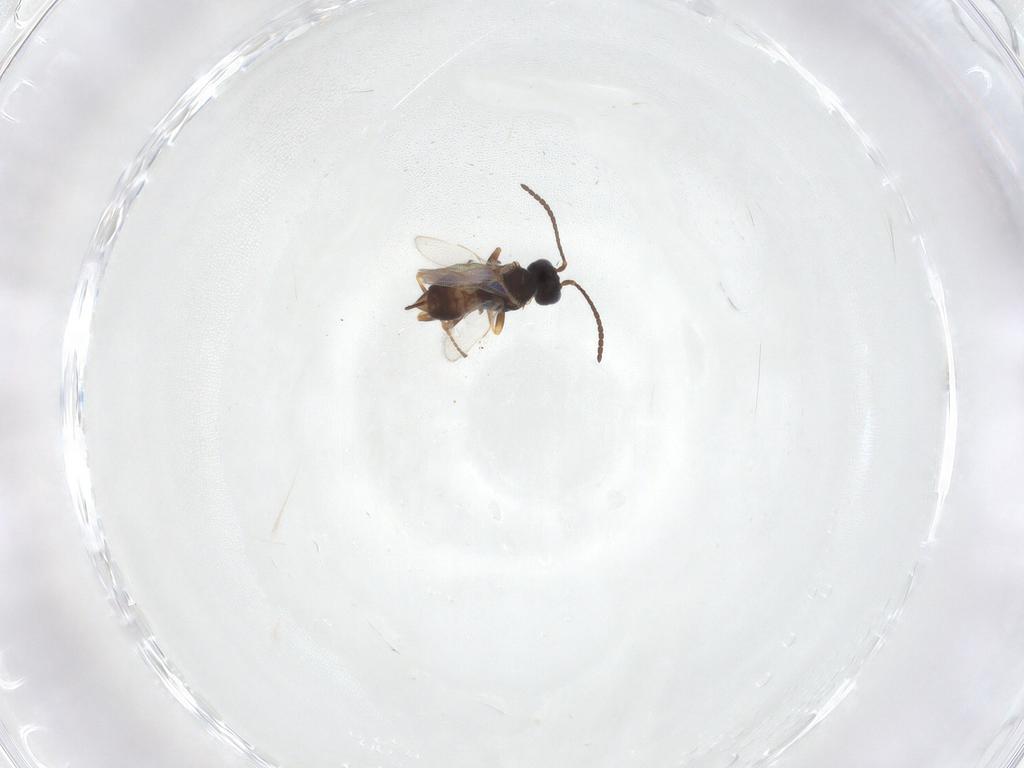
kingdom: Animalia
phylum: Arthropoda
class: Insecta
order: Hymenoptera
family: Braconidae
